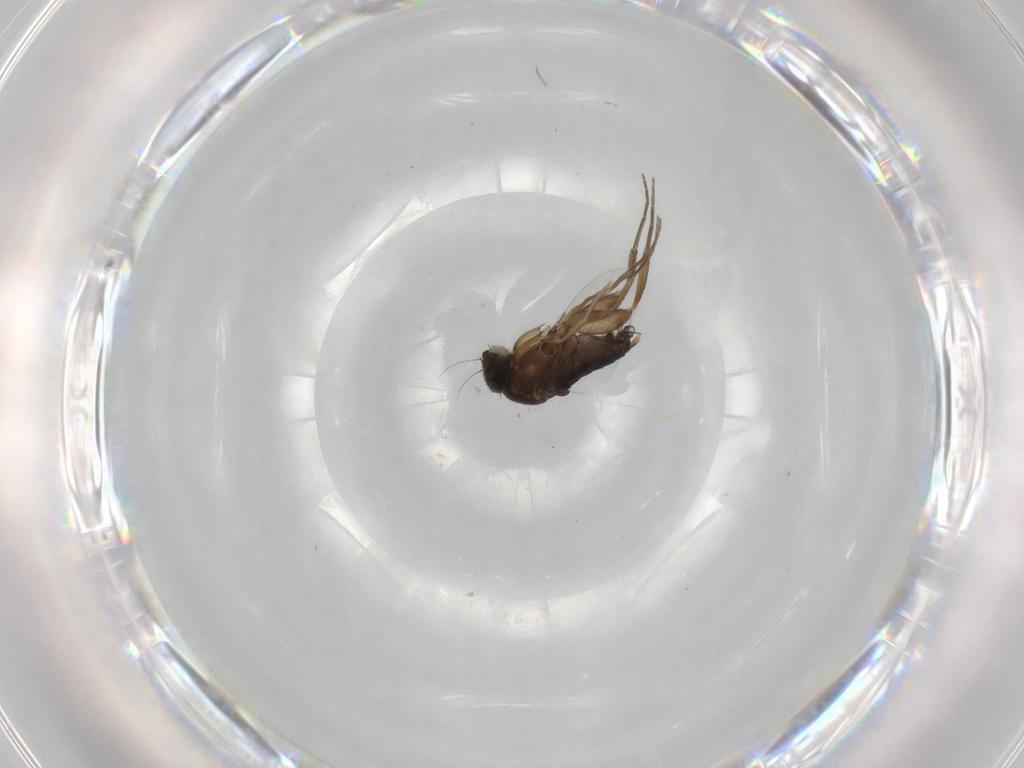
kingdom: Animalia
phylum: Arthropoda
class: Insecta
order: Diptera
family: Phoridae
